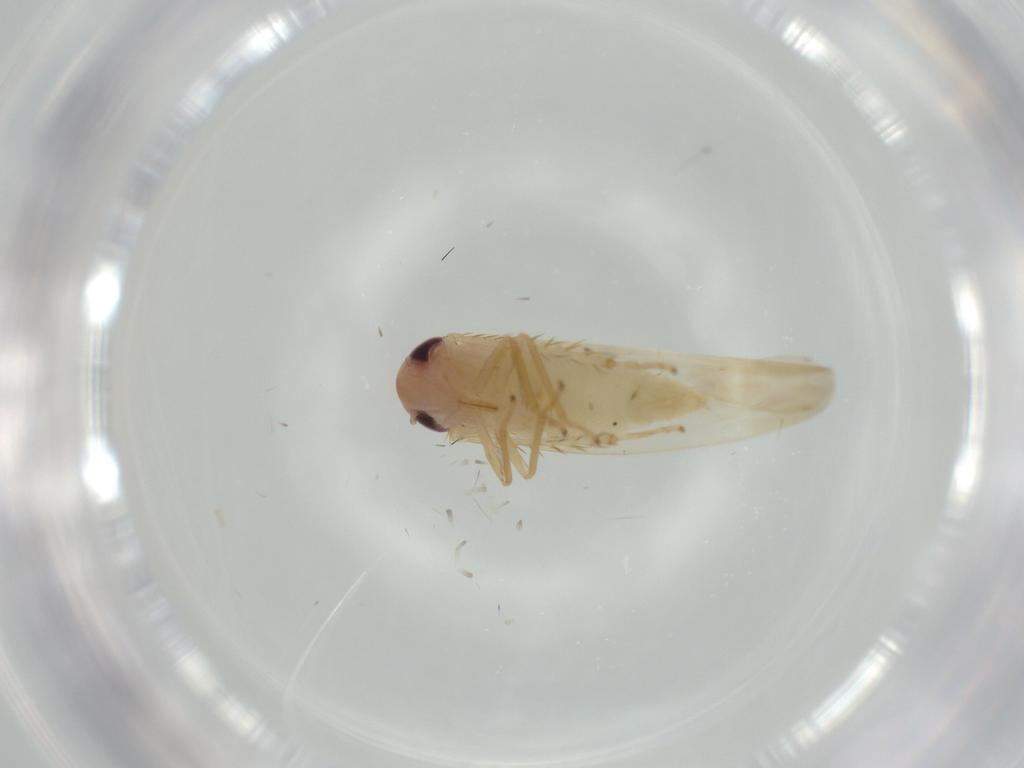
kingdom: Animalia
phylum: Arthropoda
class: Insecta
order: Hemiptera
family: Cicadellidae
